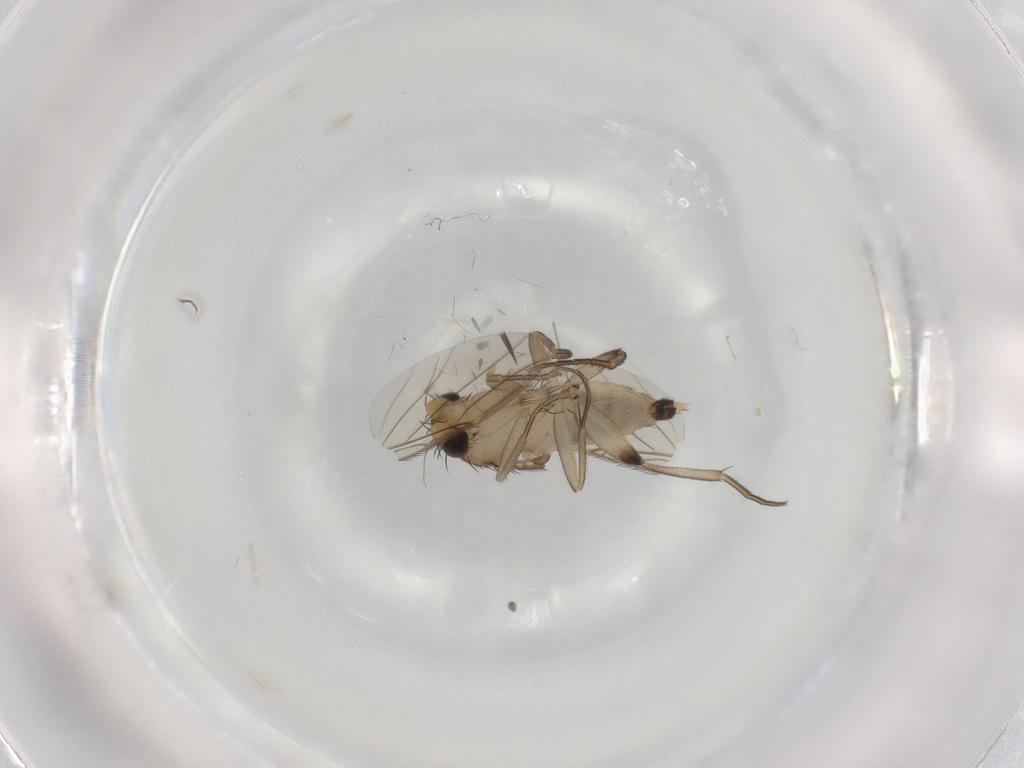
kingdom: Animalia
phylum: Arthropoda
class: Insecta
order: Diptera
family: Phoridae
